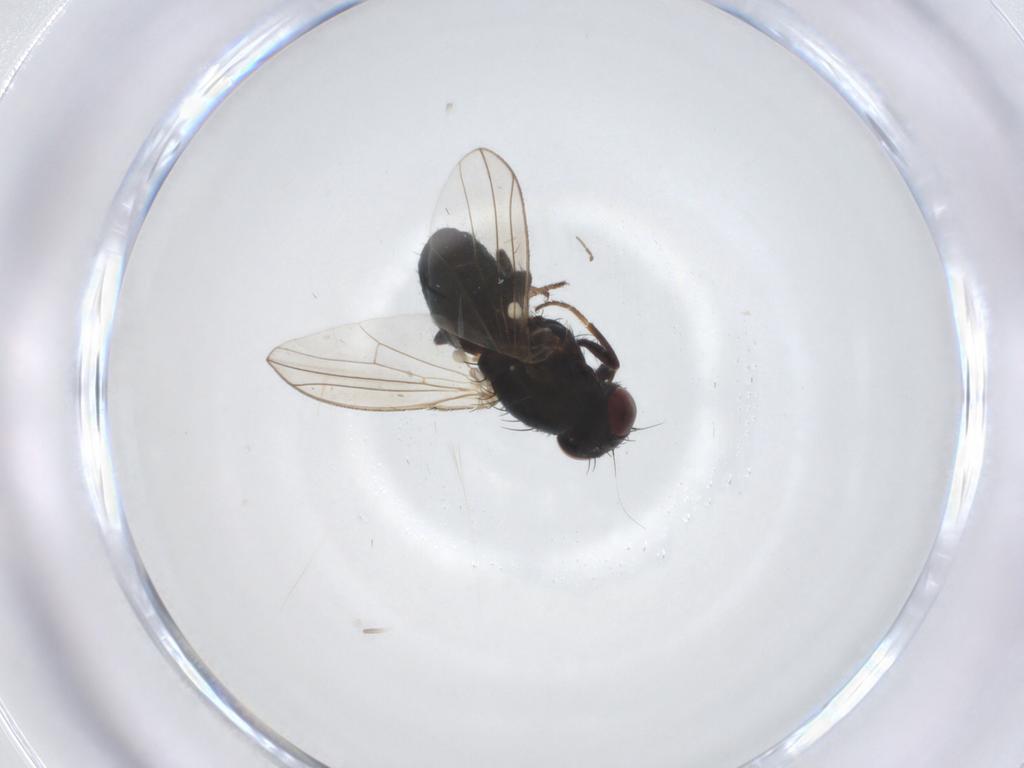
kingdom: Animalia
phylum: Arthropoda
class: Insecta
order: Diptera
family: Carnidae
